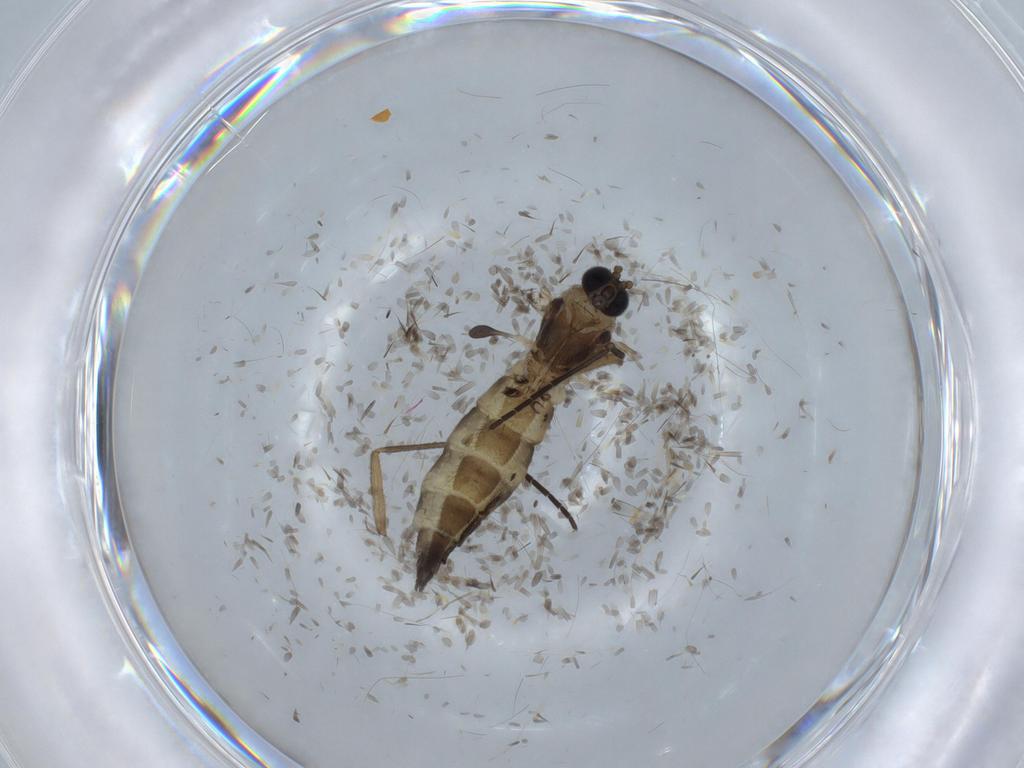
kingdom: Animalia
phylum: Arthropoda
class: Insecta
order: Diptera
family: Sciaridae
